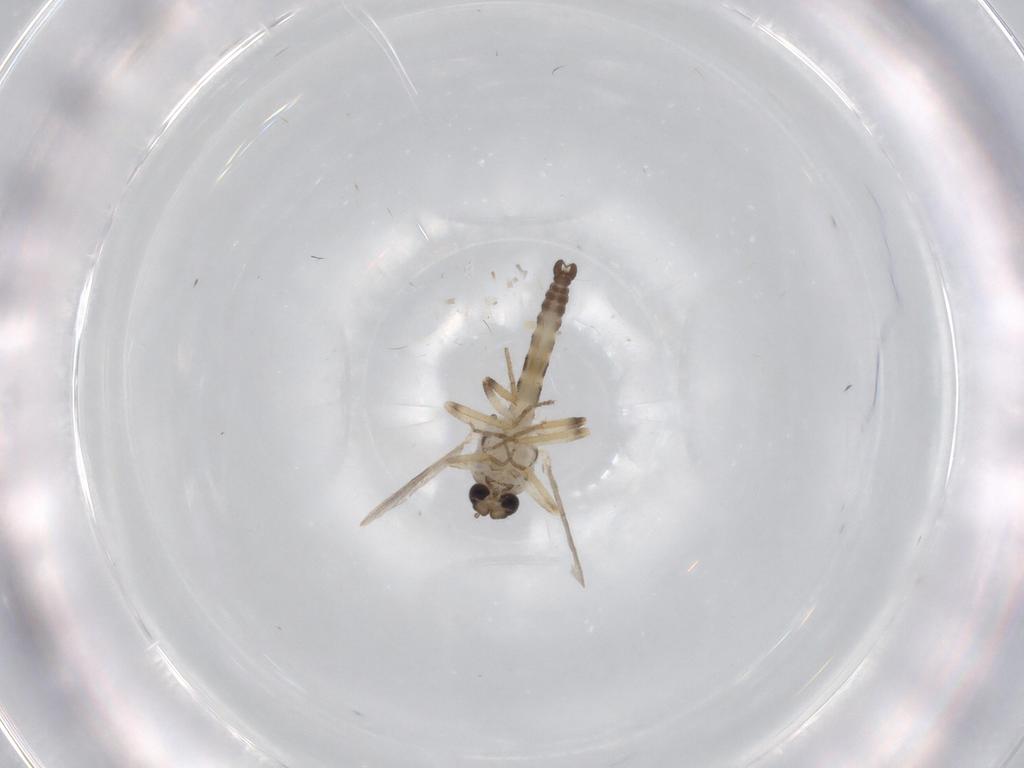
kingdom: Animalia
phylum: Arthropoda
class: Insecta
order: Diptera
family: Ceratopogonidae
